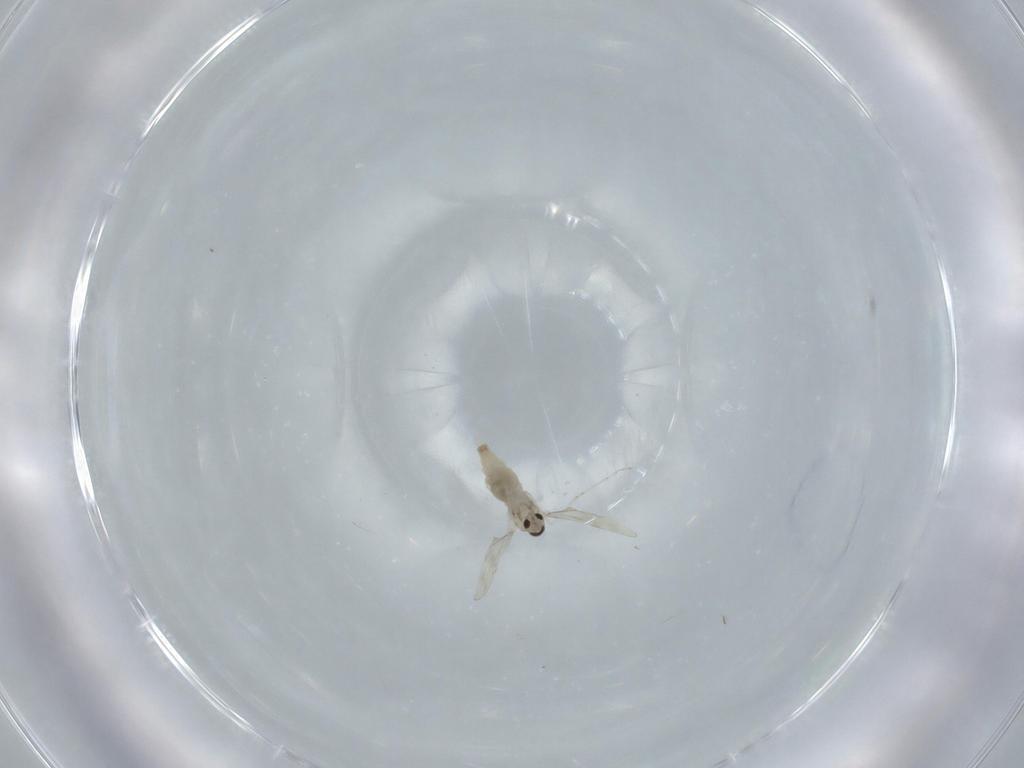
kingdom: Animalia
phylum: Arthropoda
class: Insecta
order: Diptera
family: Cecidomyiidae
